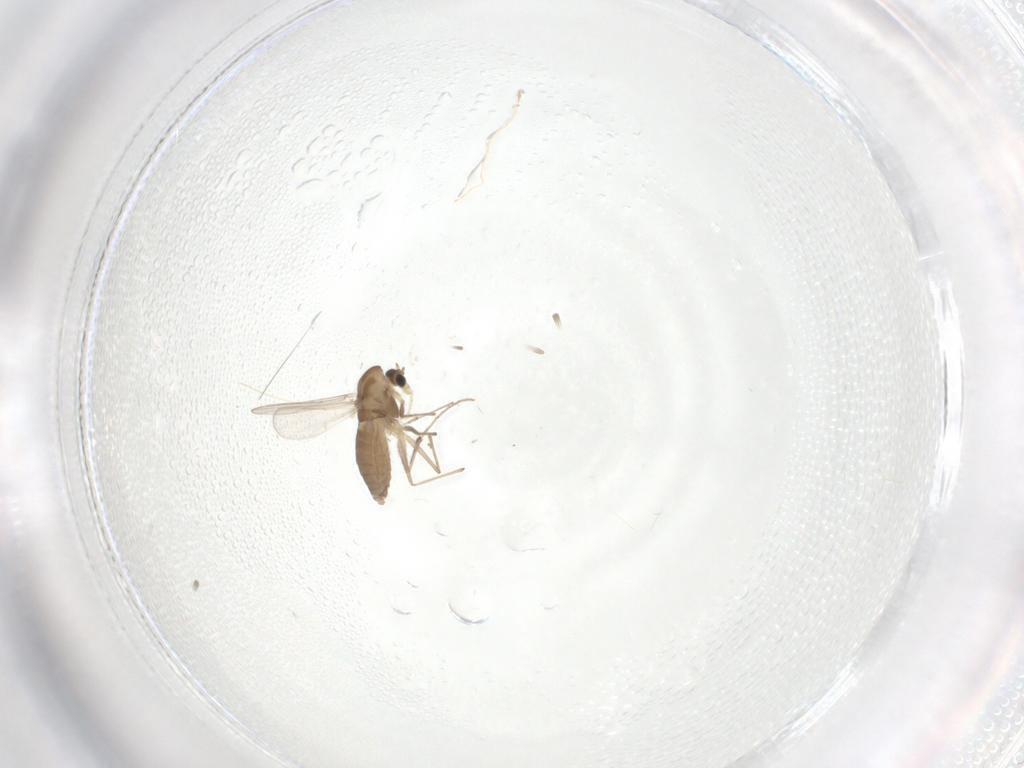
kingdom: Animalia
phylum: Arthropoda
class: Insecta
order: Diptera
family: Chironomidae
